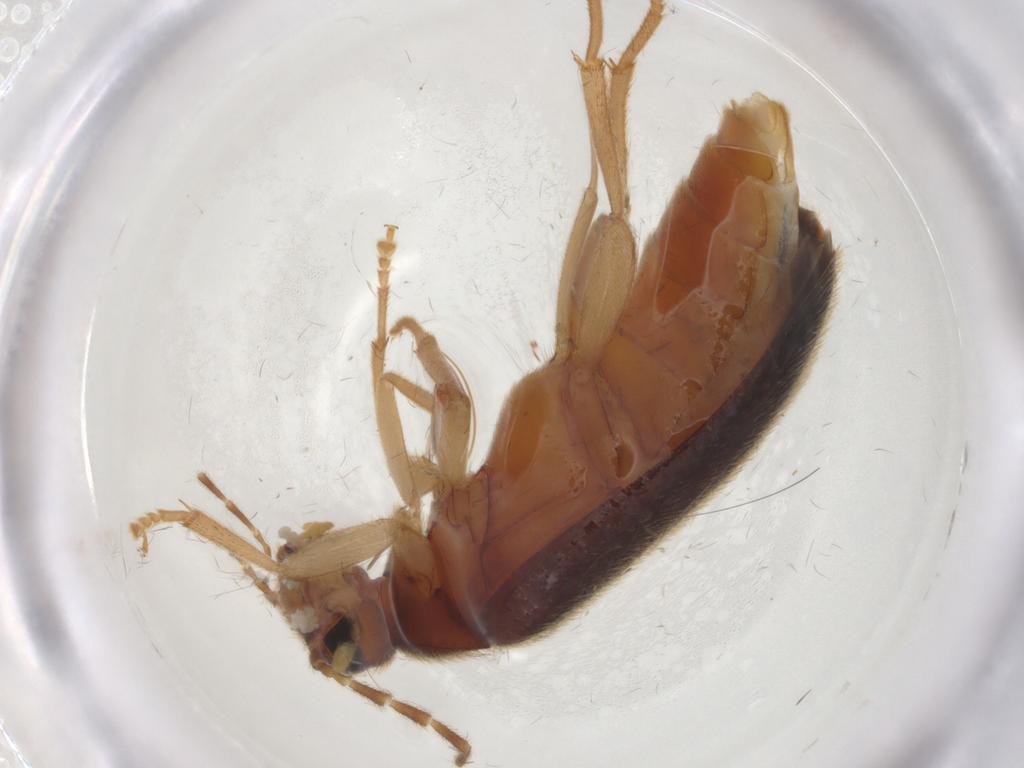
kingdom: Animalia
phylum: Arthropoda
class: Insecta
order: Coleoptera
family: Scraptiidae
